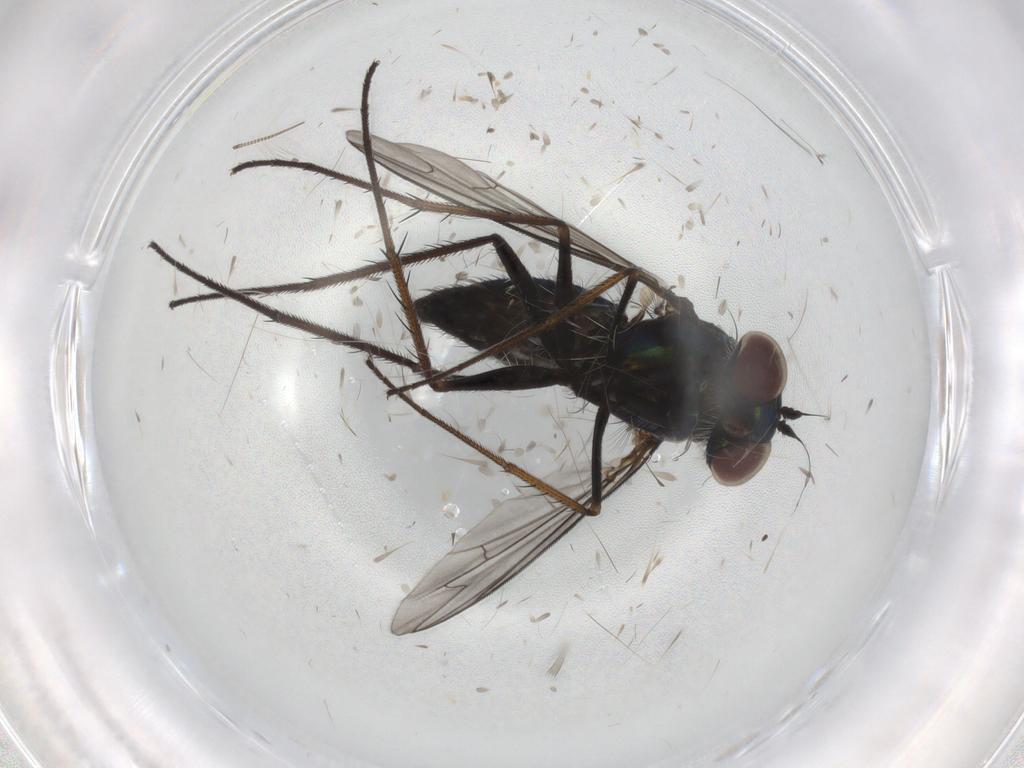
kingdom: Animalia
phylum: Arthropoda
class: Insecta
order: Diptera
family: Dolichopodidae
